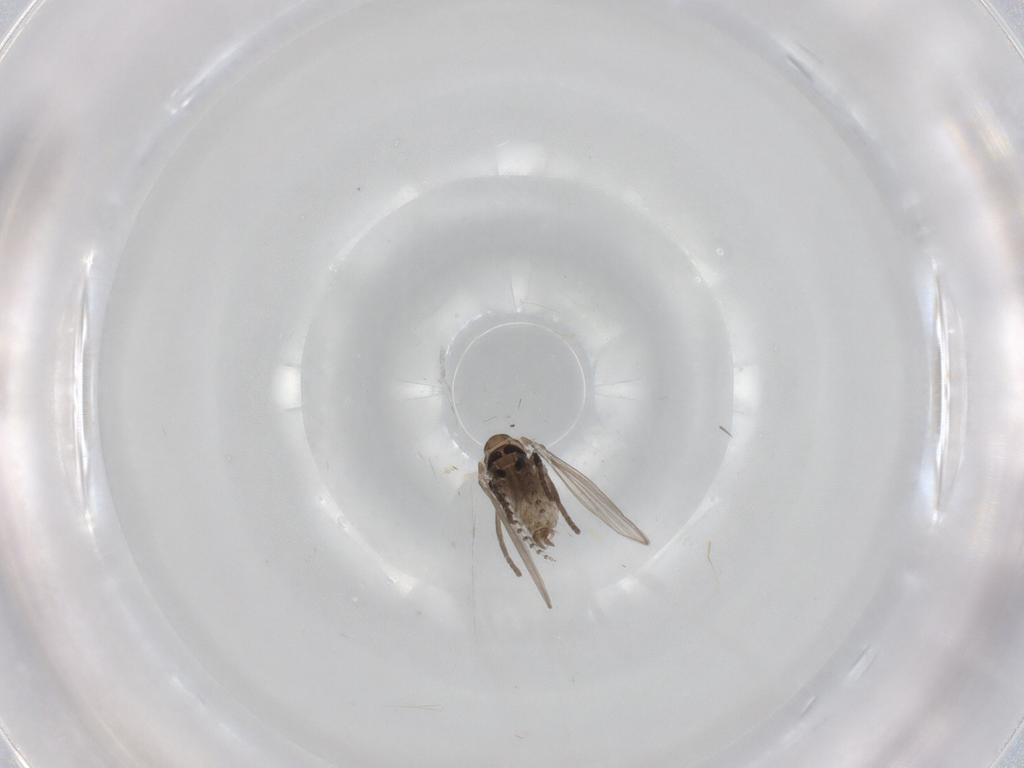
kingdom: Animalia
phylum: Arthropoda
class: Insecta
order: Diptera
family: Psychodidae
